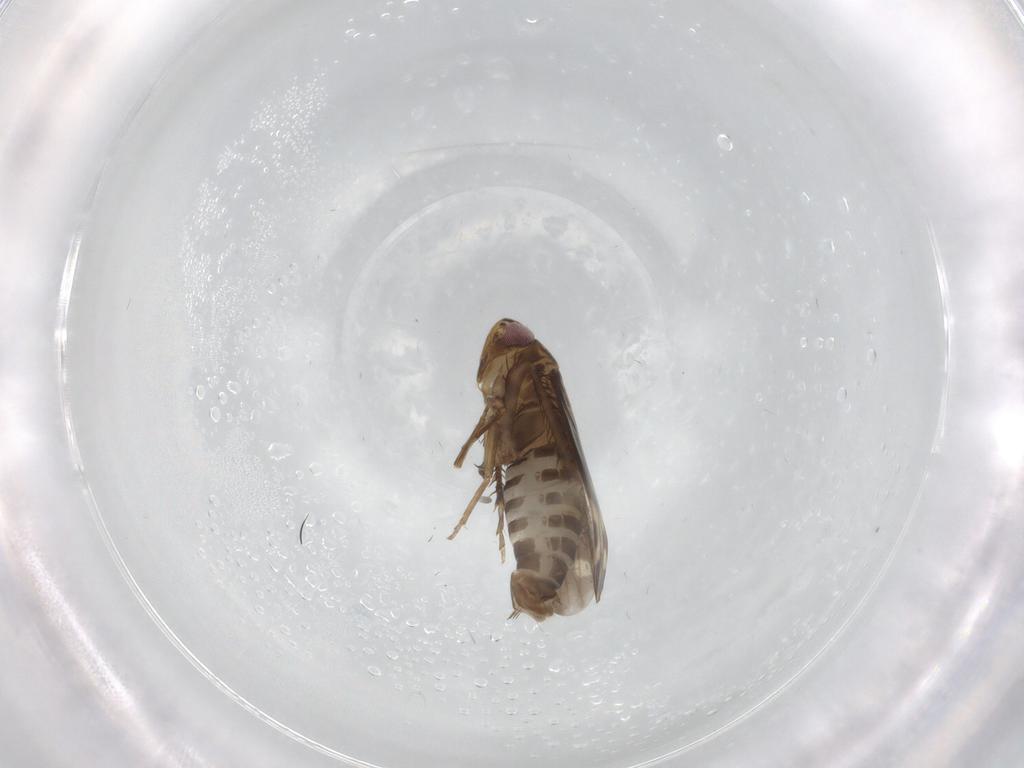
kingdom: Animalia
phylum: Arthropoda
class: Insecta
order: Hemiptera
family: Cicadellidae
